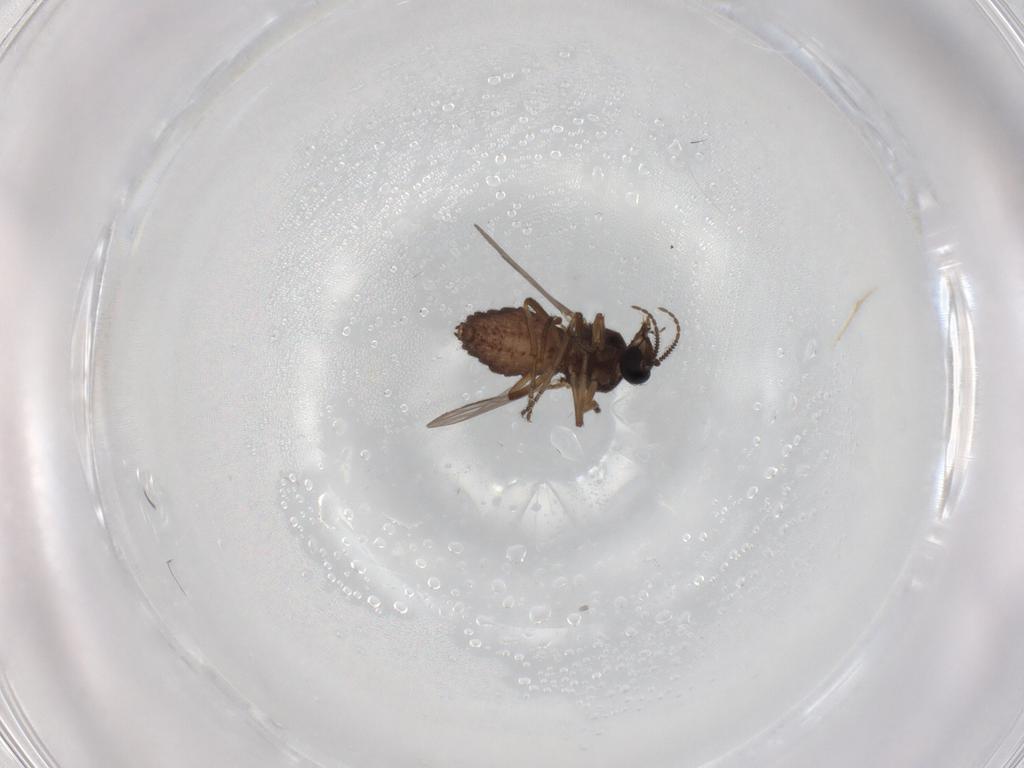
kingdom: Animalia
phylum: Arthropoda
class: Insecta
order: Diptera
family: Ceratopogonidae
